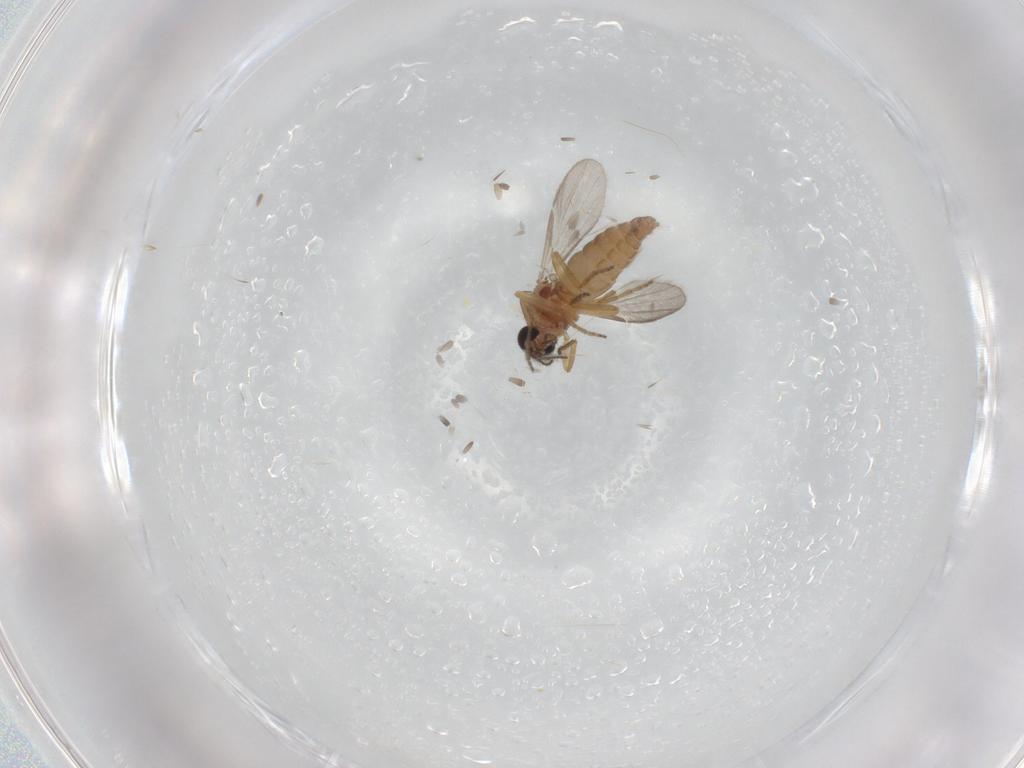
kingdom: Animalia
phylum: Arthropoda
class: Insecta
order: Diptera
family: Ceratopogonidae
